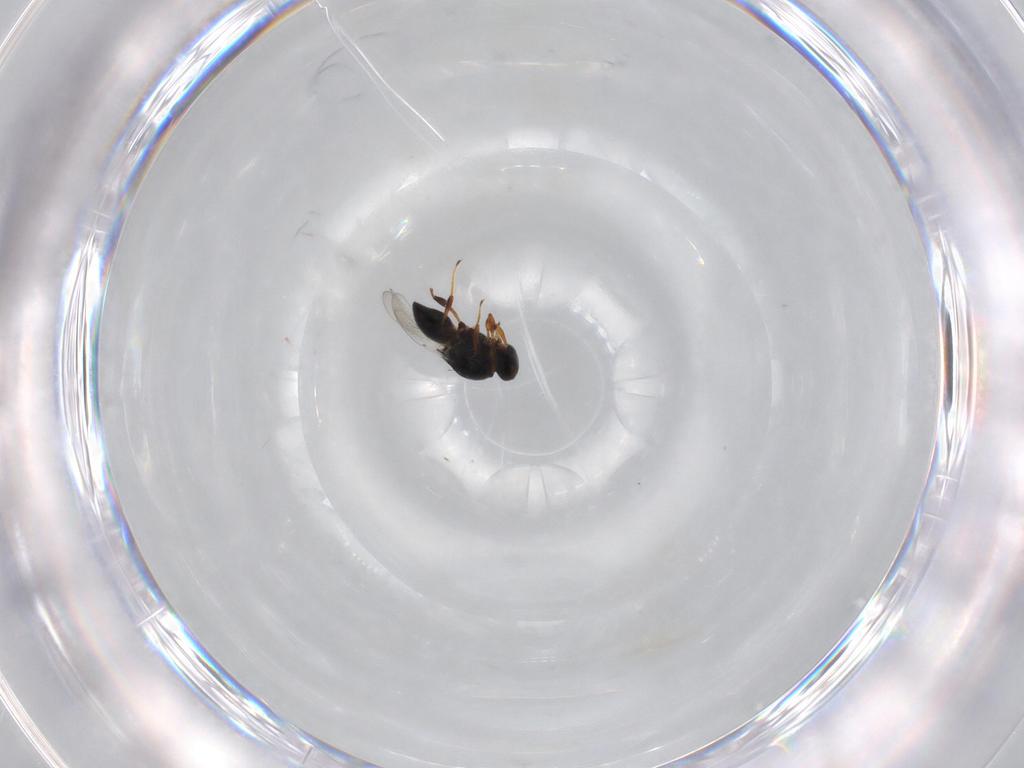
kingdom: Animalia
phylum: Arthropoda
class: Insecta
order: Hymenoptera
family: Platygastridae
